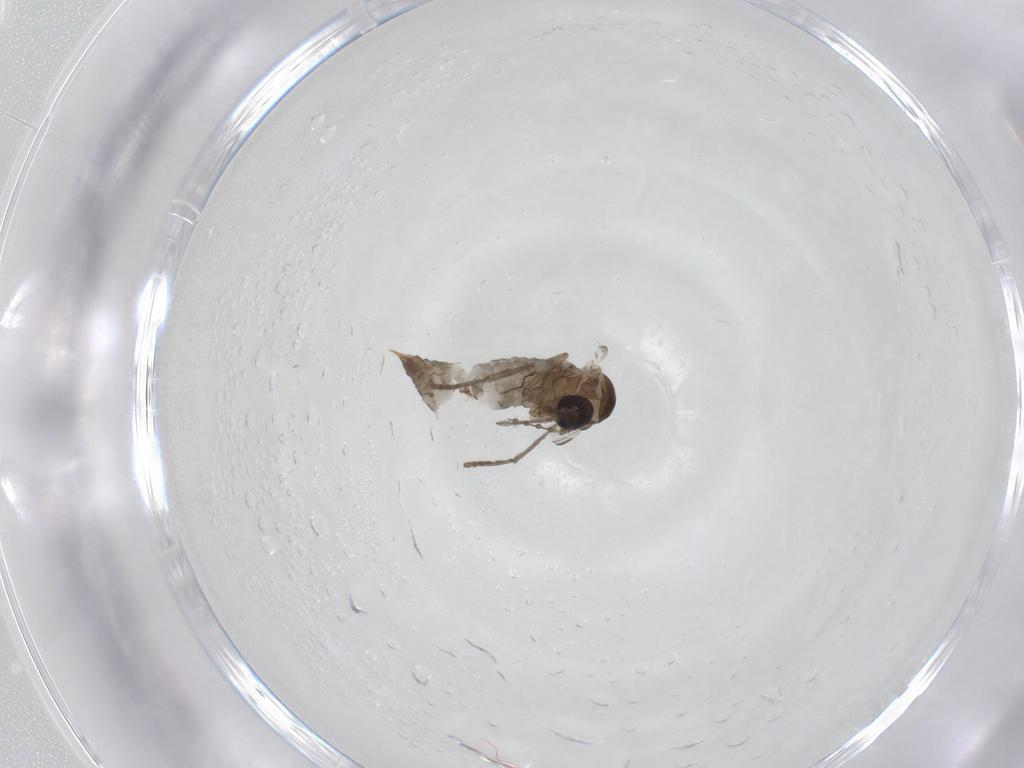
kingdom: Animalia
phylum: Arthropoda
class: Insecta
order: Diptera
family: Psychodidae
